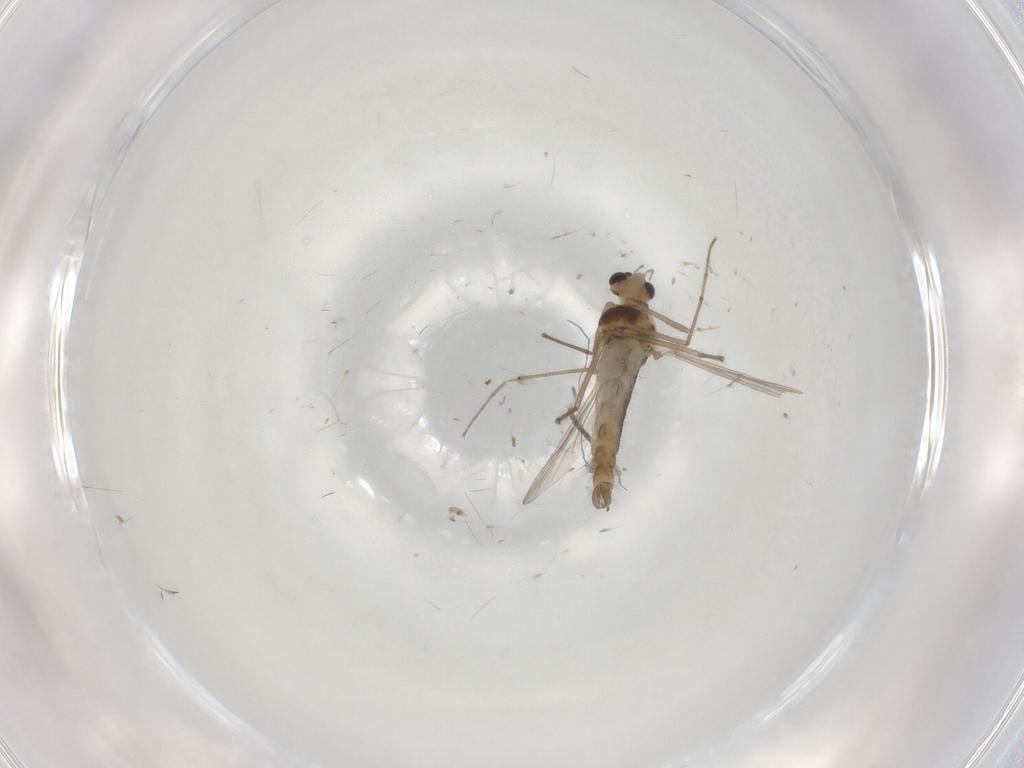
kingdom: Animalia
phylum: Arthropoda
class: Insecta
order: Diptera
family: Chironomidae
